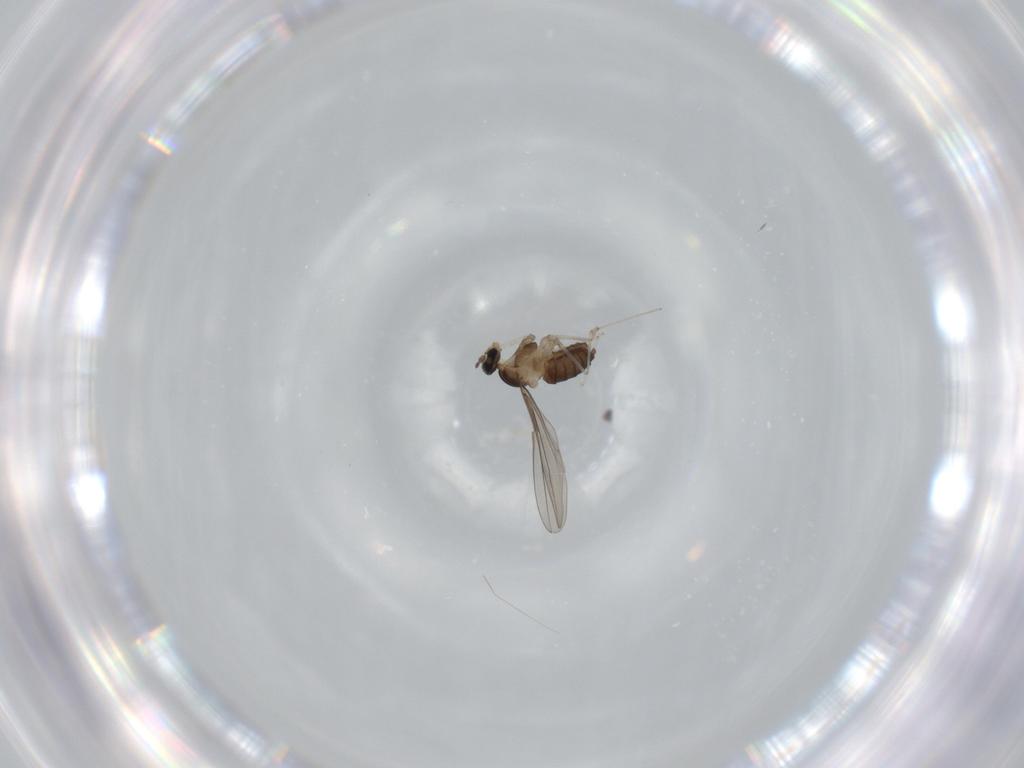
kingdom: Animalia
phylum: Arthropoda
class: Insecta
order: Diptera
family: Cecidomyiidae
